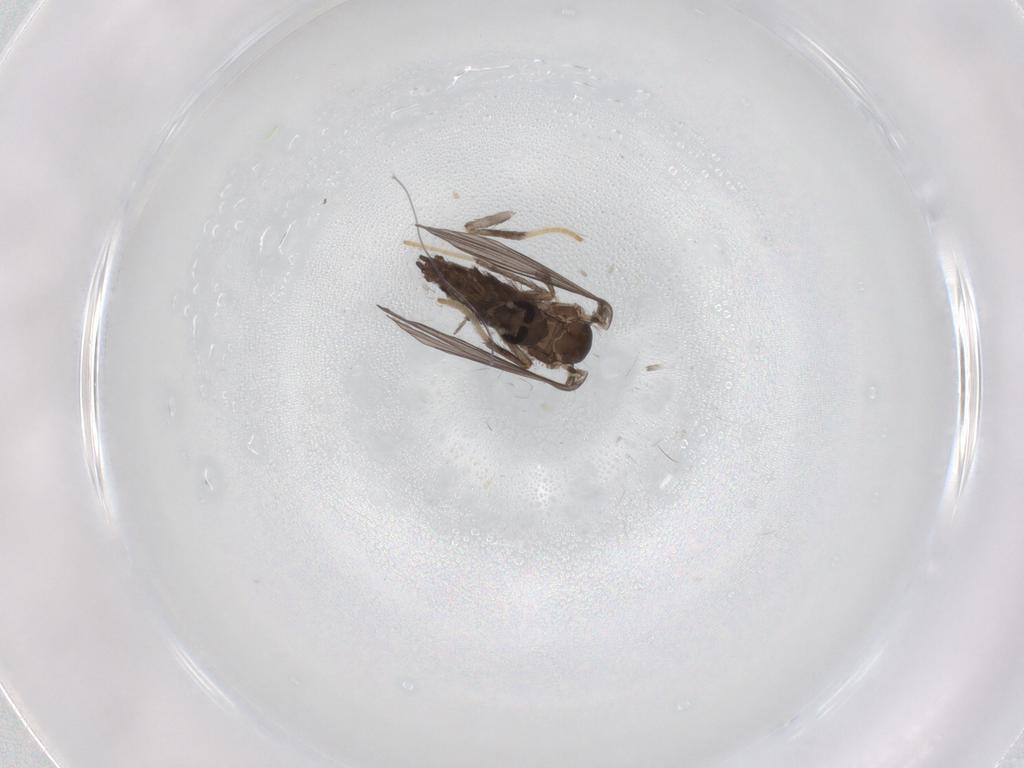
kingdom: Animalia
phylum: Arthropoda
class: Insecta
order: Diptera
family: Psychodidae
